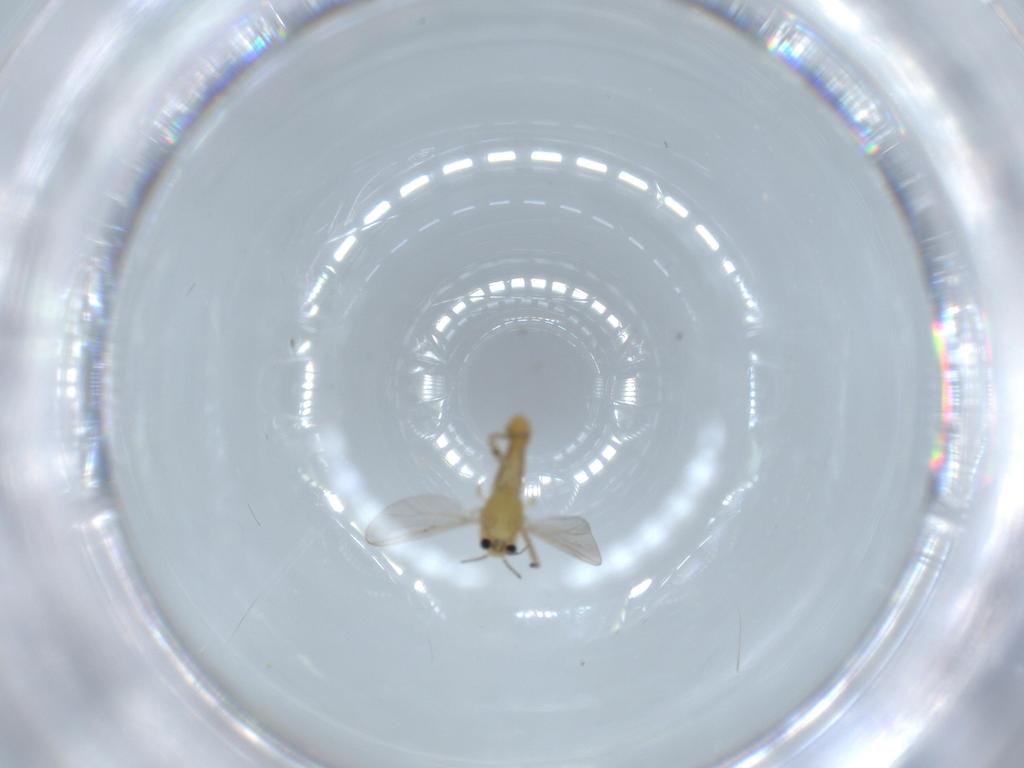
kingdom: Animalia
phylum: Arthropoda
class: Insecta
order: Diptera
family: Chironomidae
